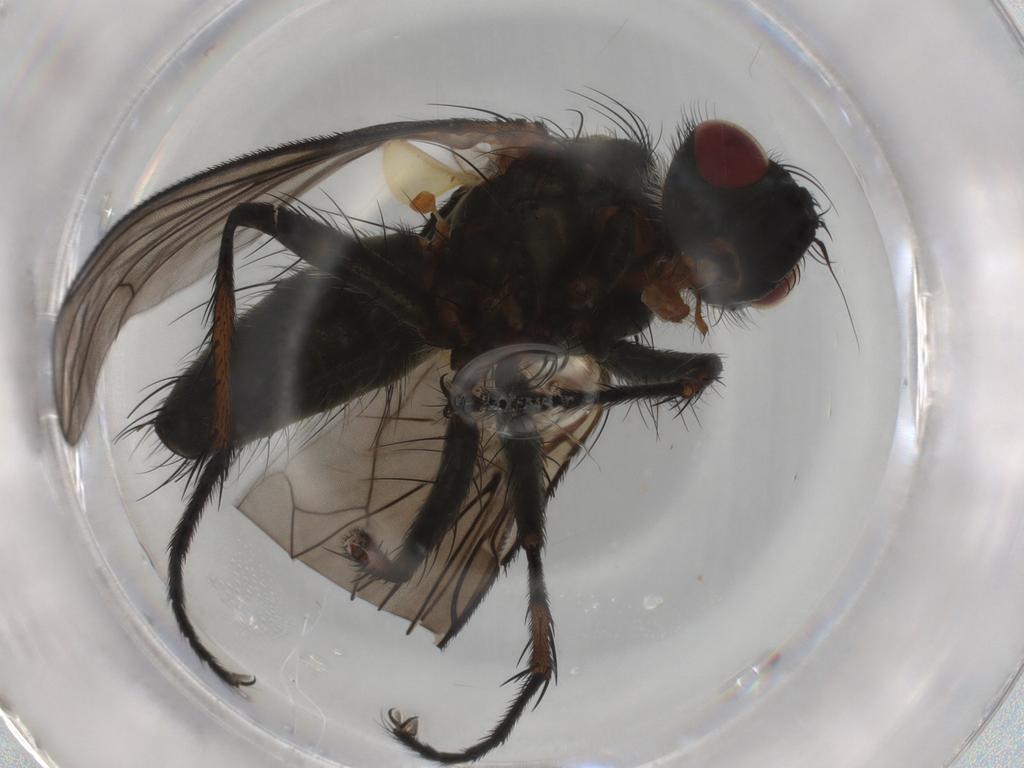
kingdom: Animalia
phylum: Arthropoda
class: Insecta
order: Diptera
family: Tachinidae
